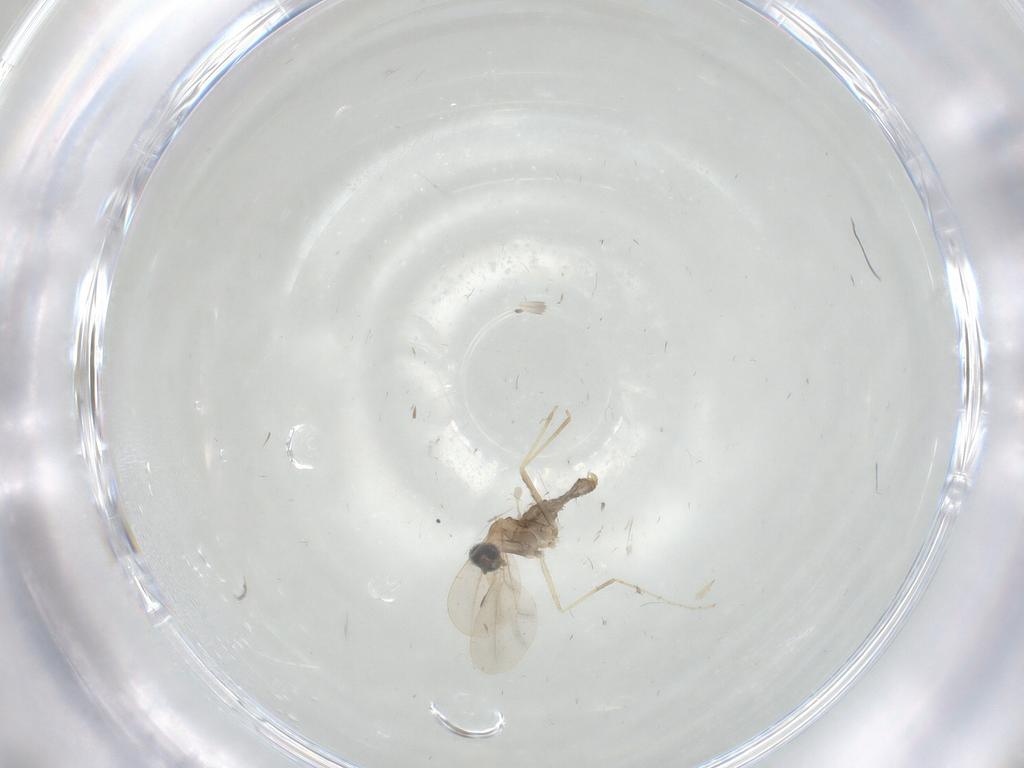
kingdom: Animalia
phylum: Arthropoda
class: Insecta
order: Diptera
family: Cecidomyiidae
